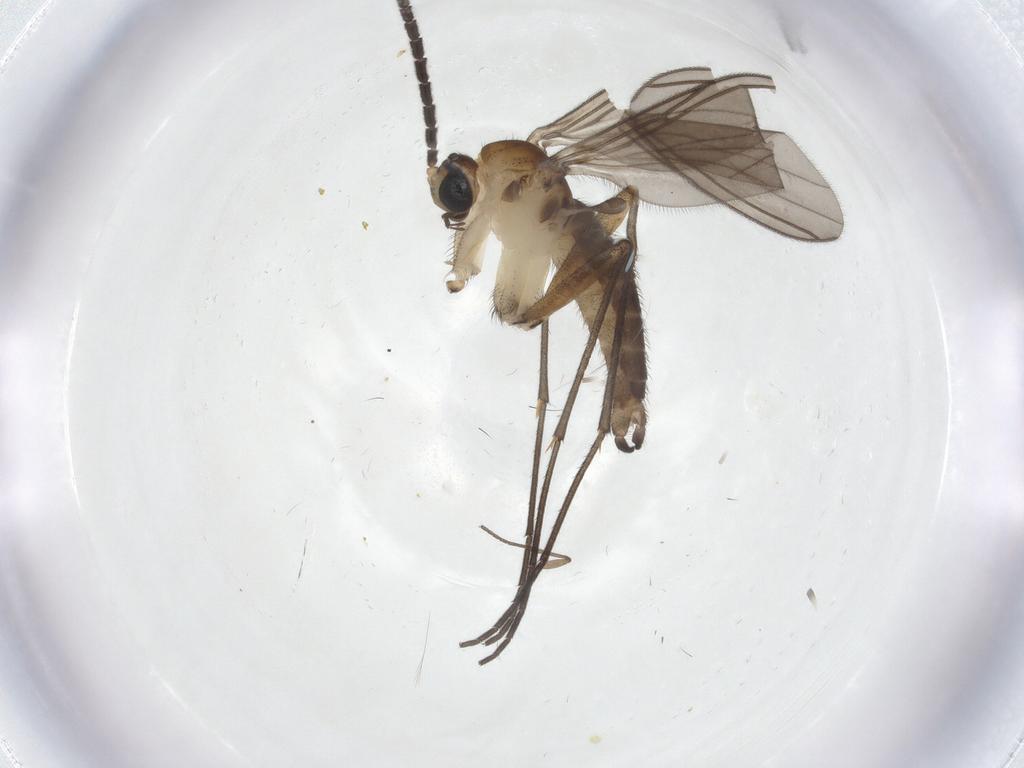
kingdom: Animalia
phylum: Arthropoda
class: Insecta
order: Diptera
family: Sciaridae
